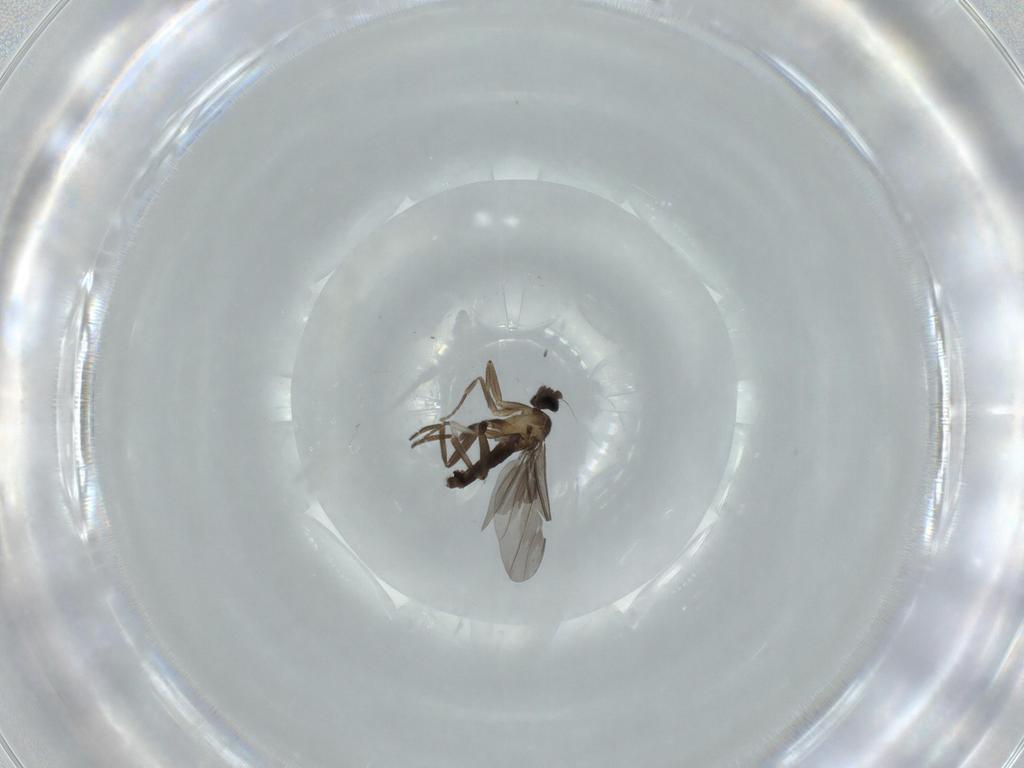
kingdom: Animalia
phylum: Arthropoda
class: Insecta
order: Diptera
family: Phoridae
